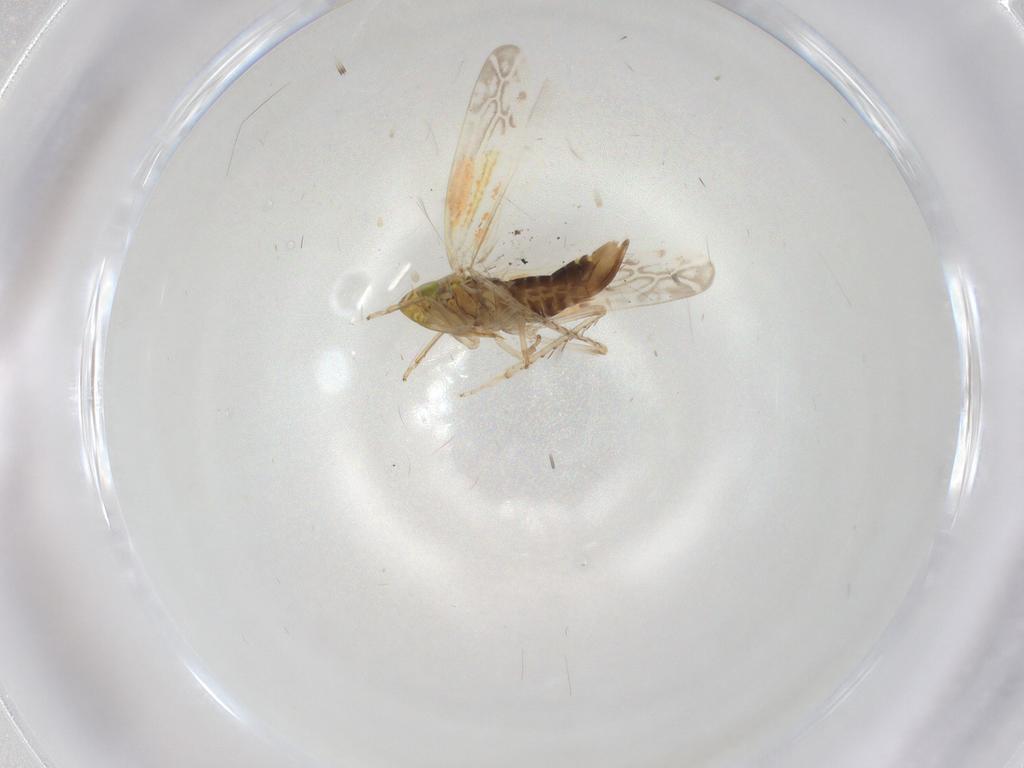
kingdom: Animalia
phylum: Arthropoda
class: Insecta
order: Hemiptera
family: Cicadellidae
